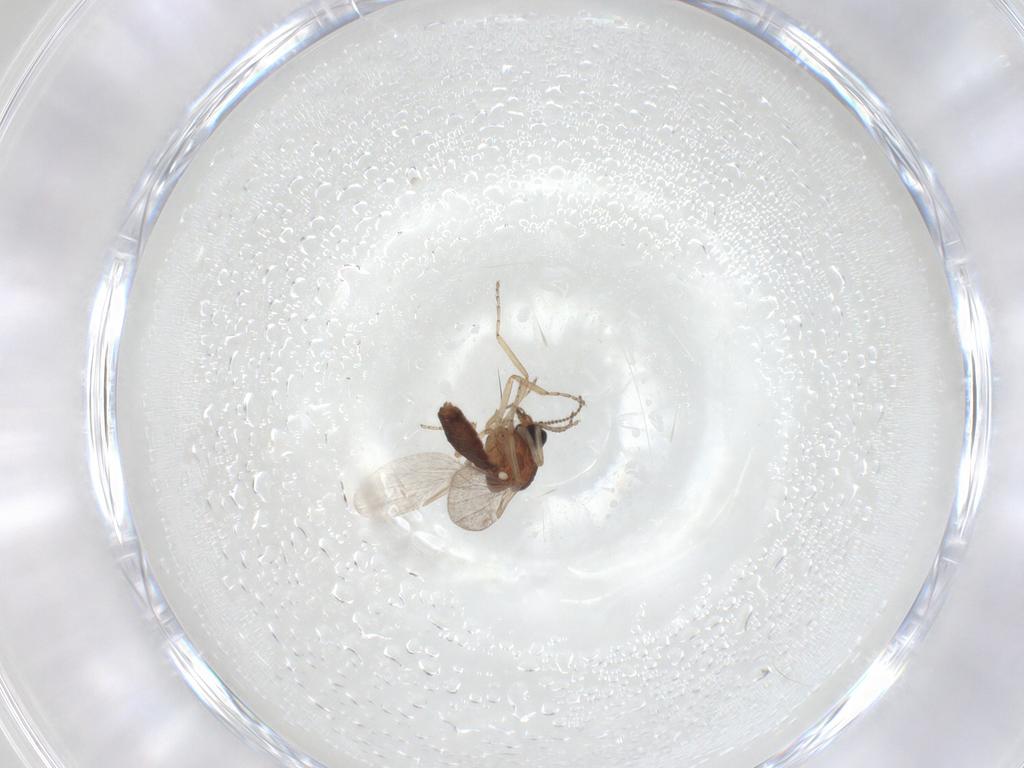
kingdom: Animalia
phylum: Arthropoda
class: Insecta
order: Diptera
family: Ceratopogonidae
